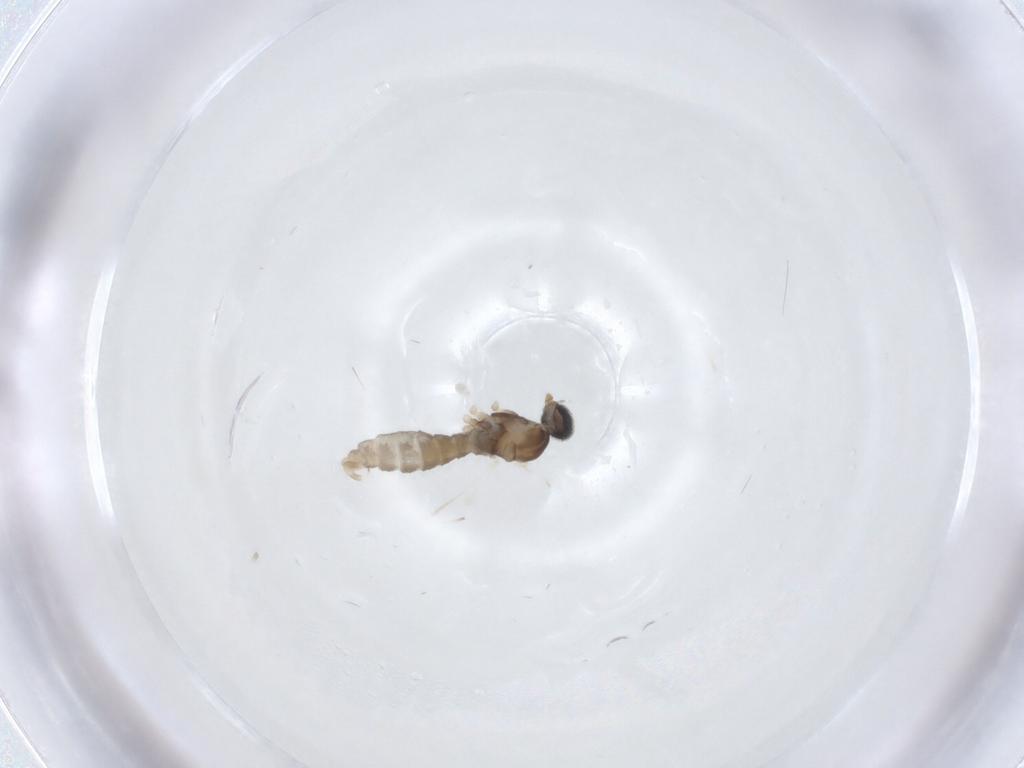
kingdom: Animalia
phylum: Arthropoda
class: Insecta
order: Diptera
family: Cecidomyiidae
